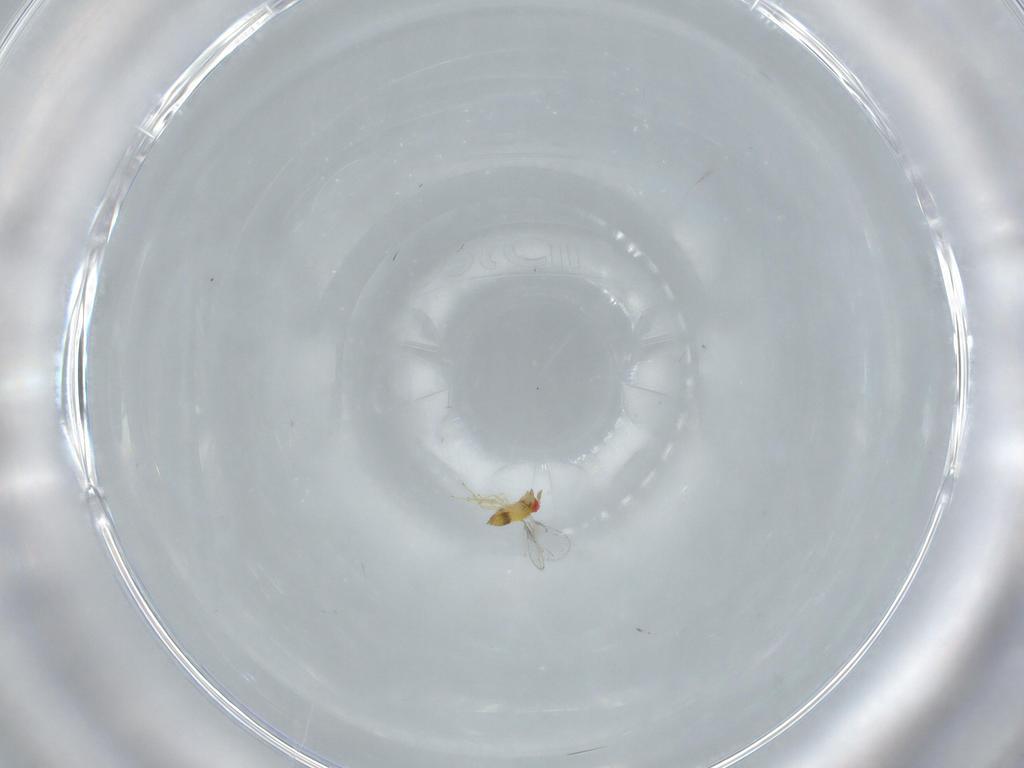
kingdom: Animalia
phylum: Arthropoda
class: Insecta
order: Hymenoptera
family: Trichogrammatidae
